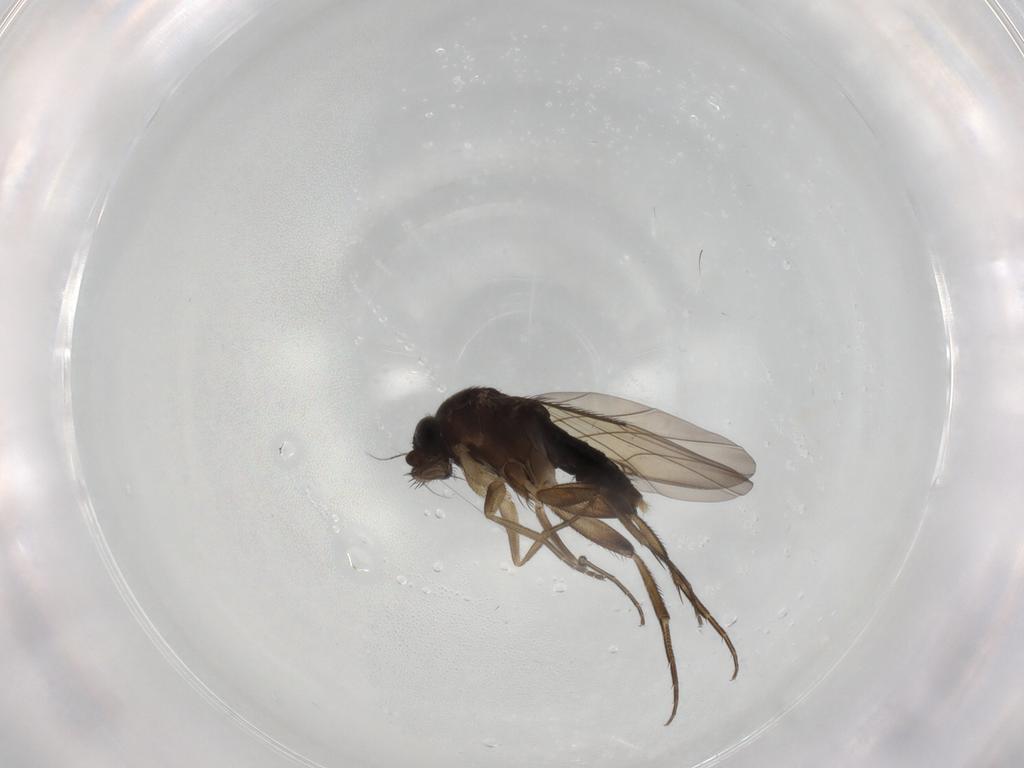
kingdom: Animalia
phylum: Arthropoda
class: Insecta
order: Diptera
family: Phoridae
